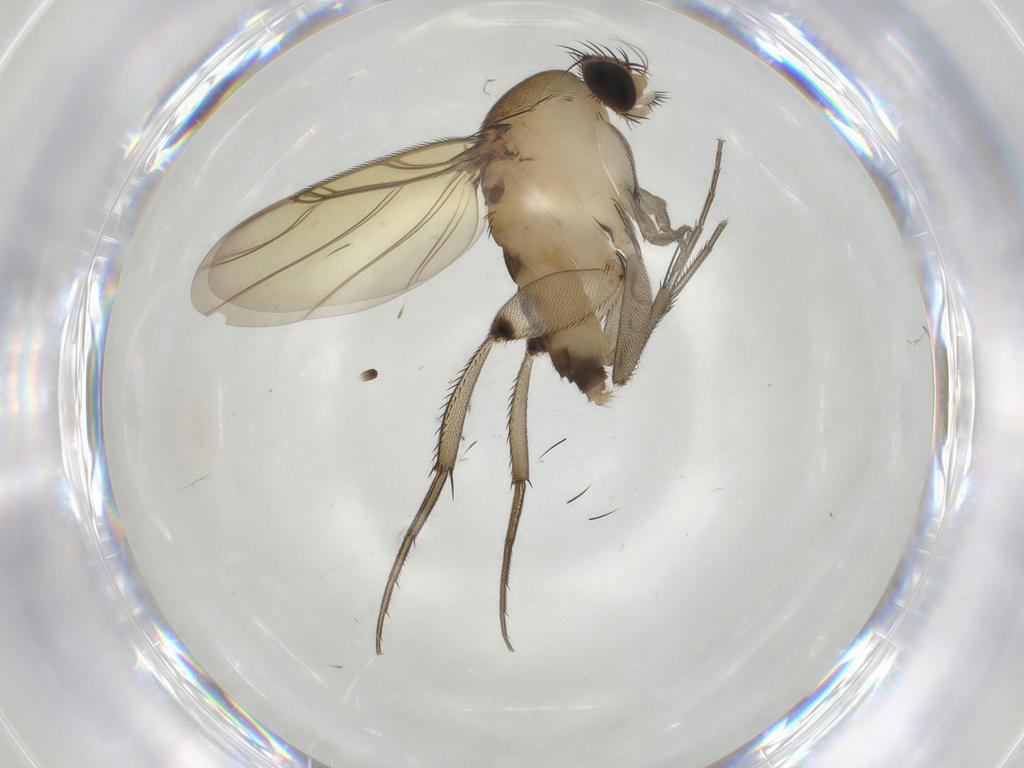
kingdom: Animalia
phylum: Arthropoda
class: Insecta
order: Diptera
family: Phoridae
